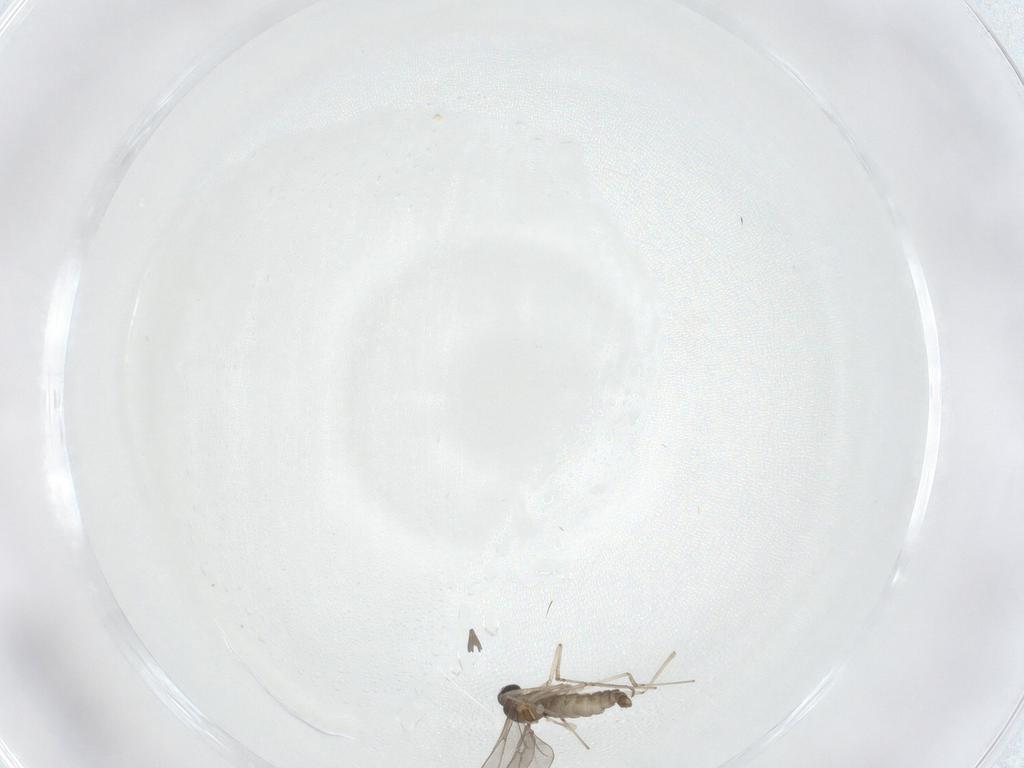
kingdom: Animalia
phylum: Arthropoda
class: Insecta
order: Diptera
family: Cecidomyiidae
